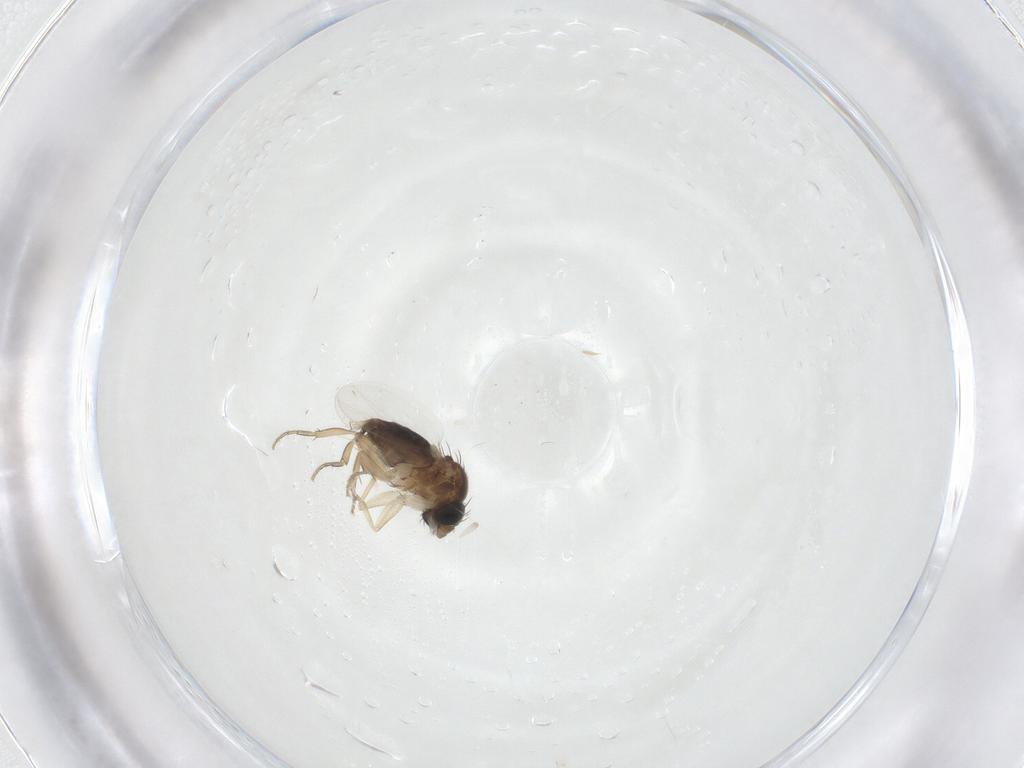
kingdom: Animalia
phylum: Arthropoda
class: Insecta
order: Diptera
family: Phoridae
